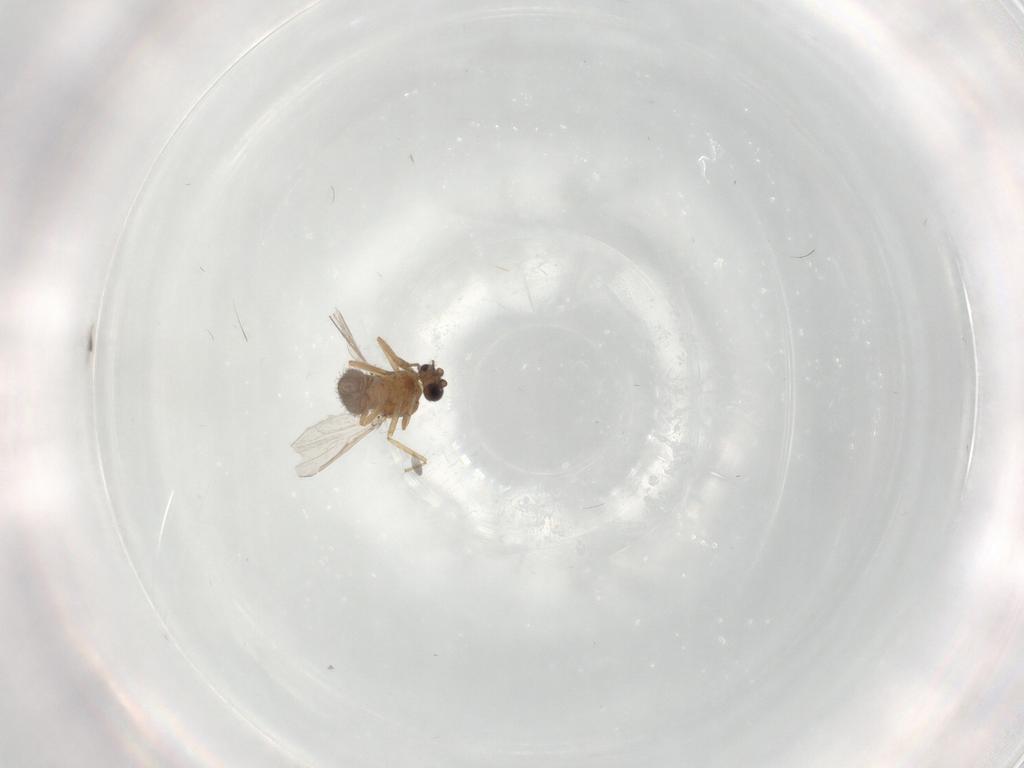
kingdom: Animalia
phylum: Arthropoda
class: Insecta
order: Diptera
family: Ceratopogonidae
